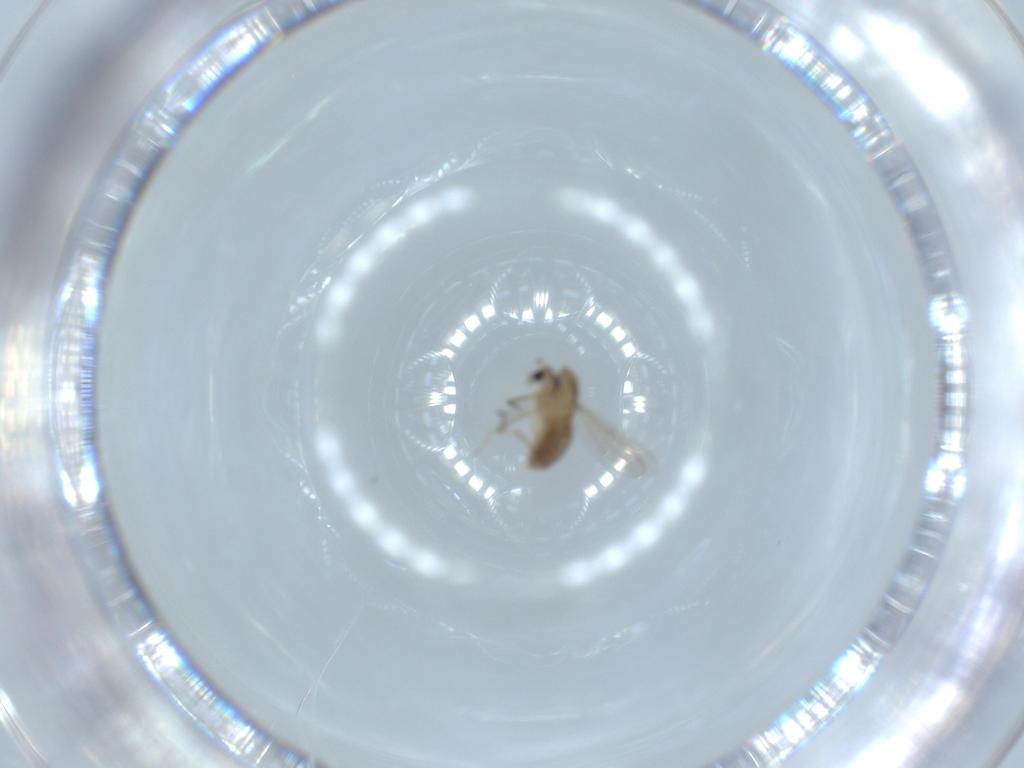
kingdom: Animalia
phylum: Arthropoda
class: Insecta
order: Diptera
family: Chironomidae
